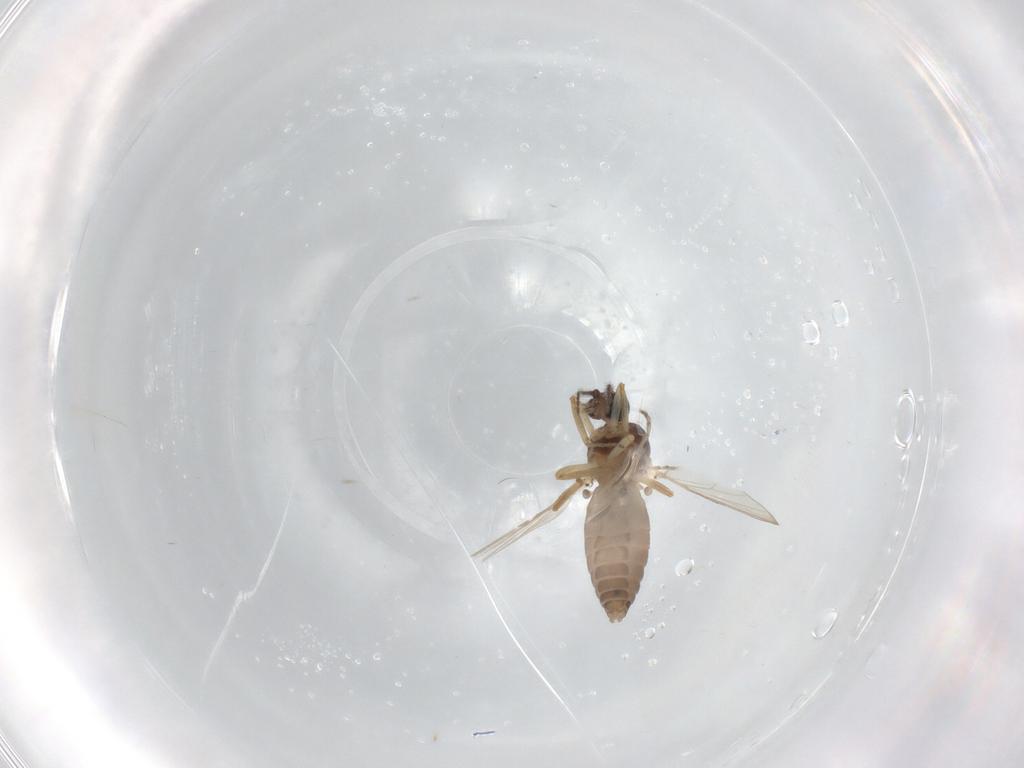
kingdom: Animalia
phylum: Arthropoda
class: Insecta
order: Diptera
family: Ceratopogonidae
